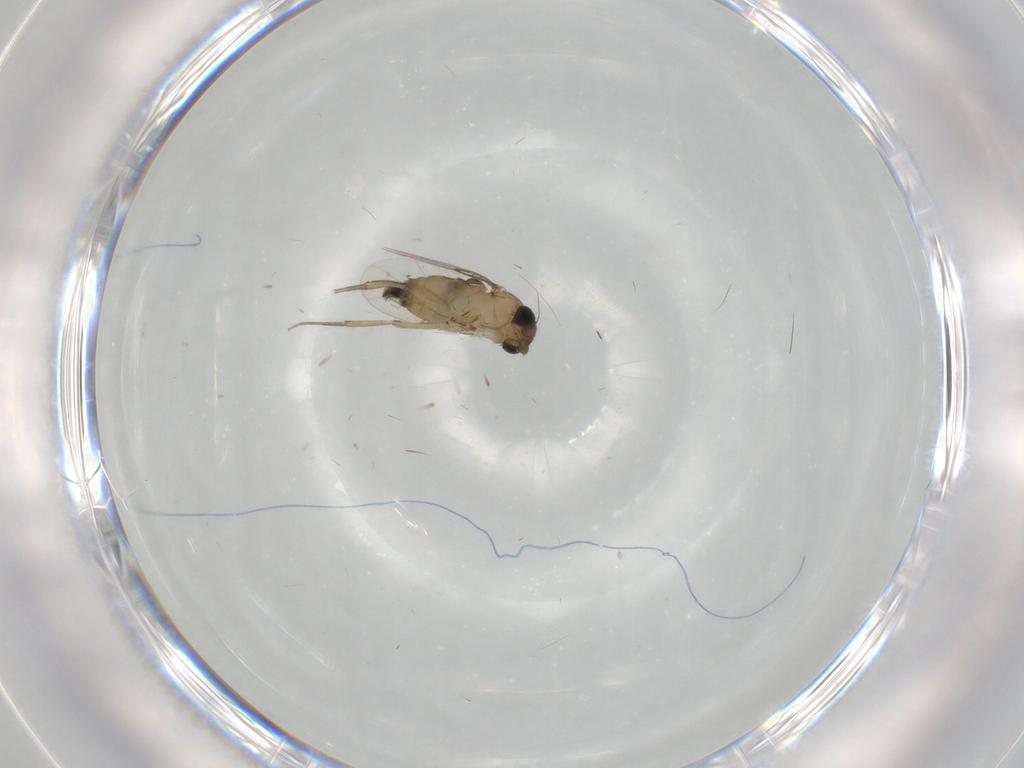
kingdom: Animalia
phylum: Arthropoda
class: Insecta
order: Diptera
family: Phoridae
